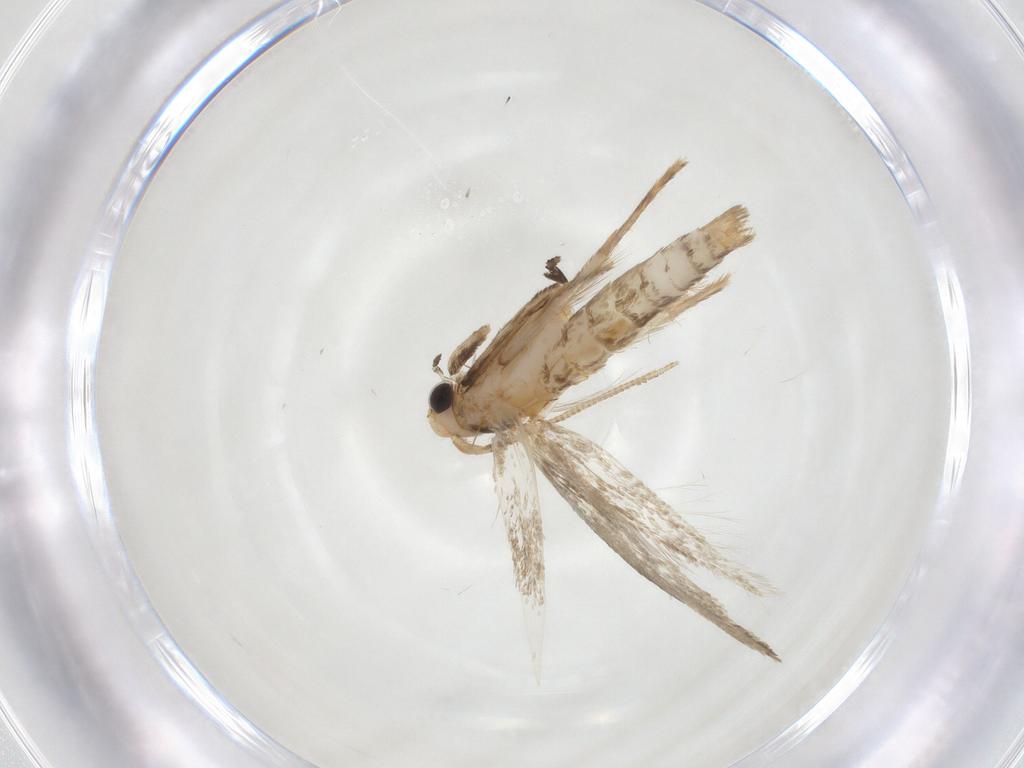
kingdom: Animalia
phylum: Arthropoda
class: Insecta
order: Lepidoptera
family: Tineidae
